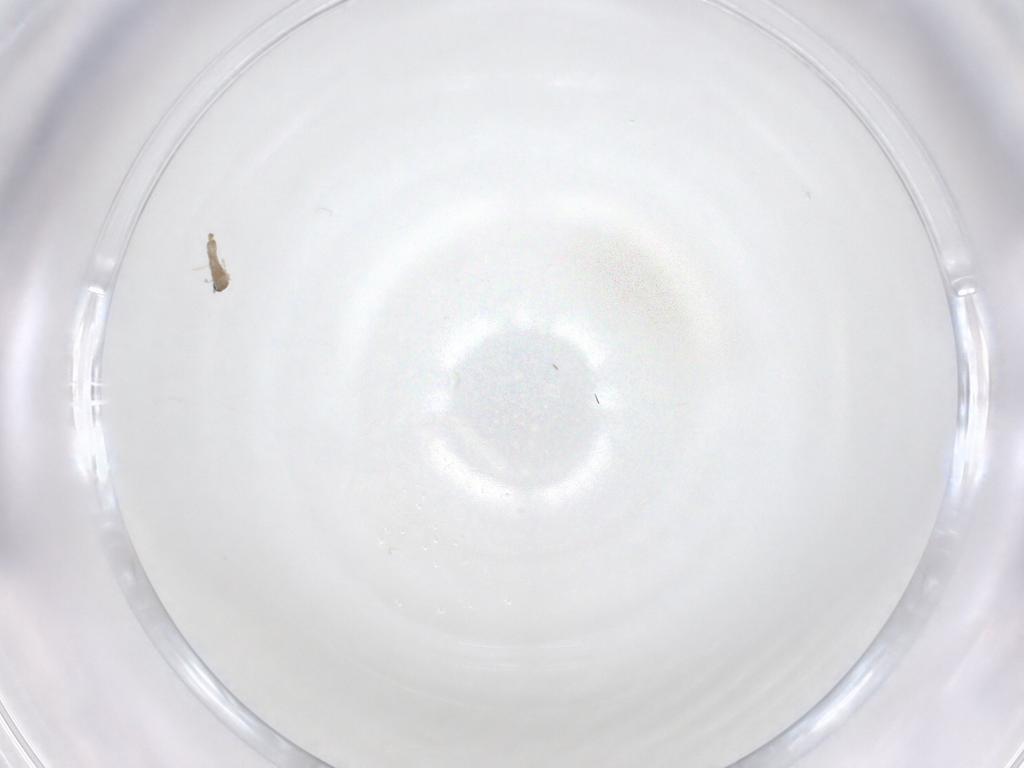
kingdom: Animalia
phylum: Arthropoda
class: Insecta
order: Diptera
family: Cecidomyiidae
